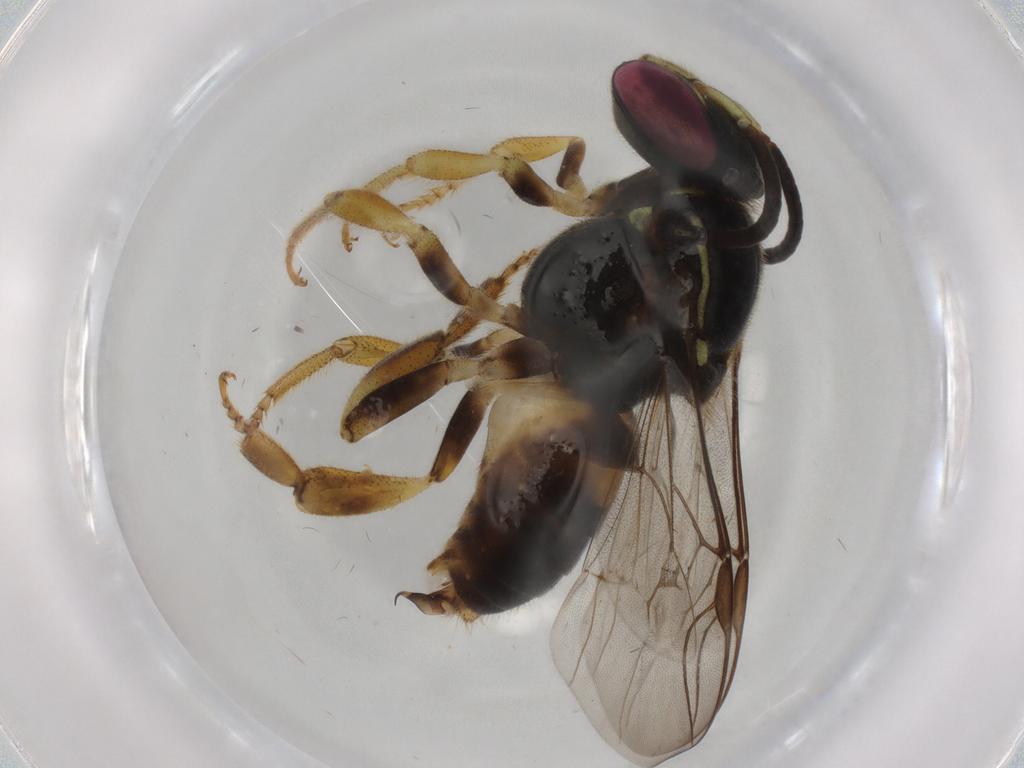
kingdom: Animalia
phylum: Arthropoda
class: Insecta
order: Hymenoptera
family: Apidae
